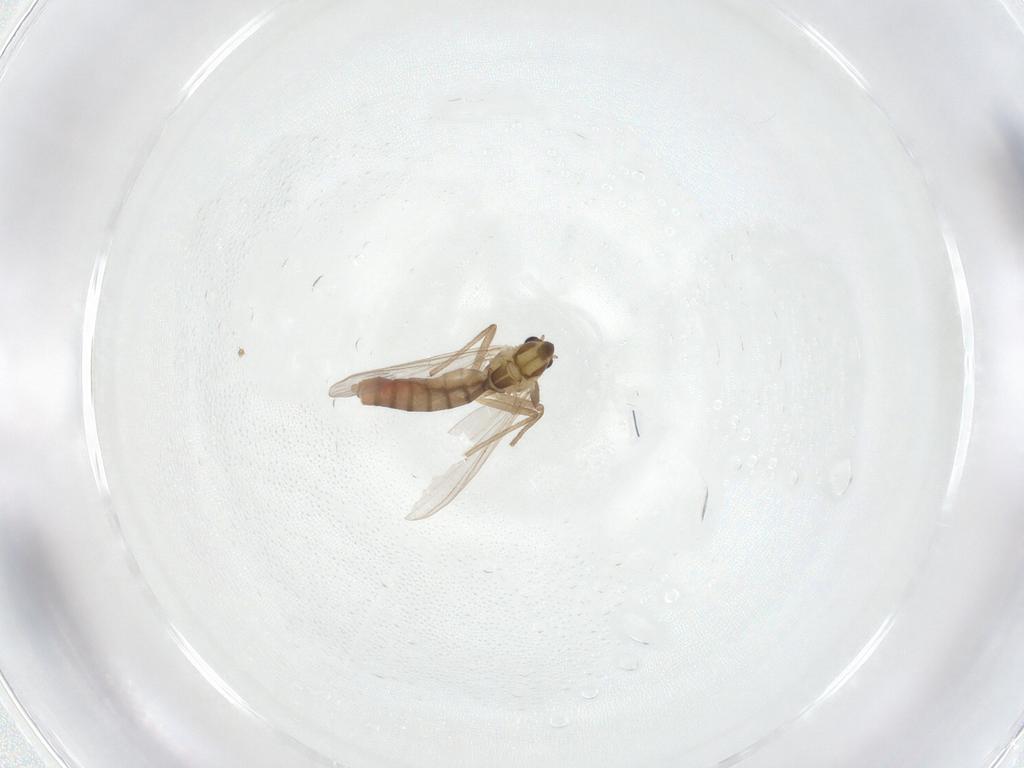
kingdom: Animalia
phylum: Arthropoda
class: Insecta
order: Diptera
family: Chironomidae
